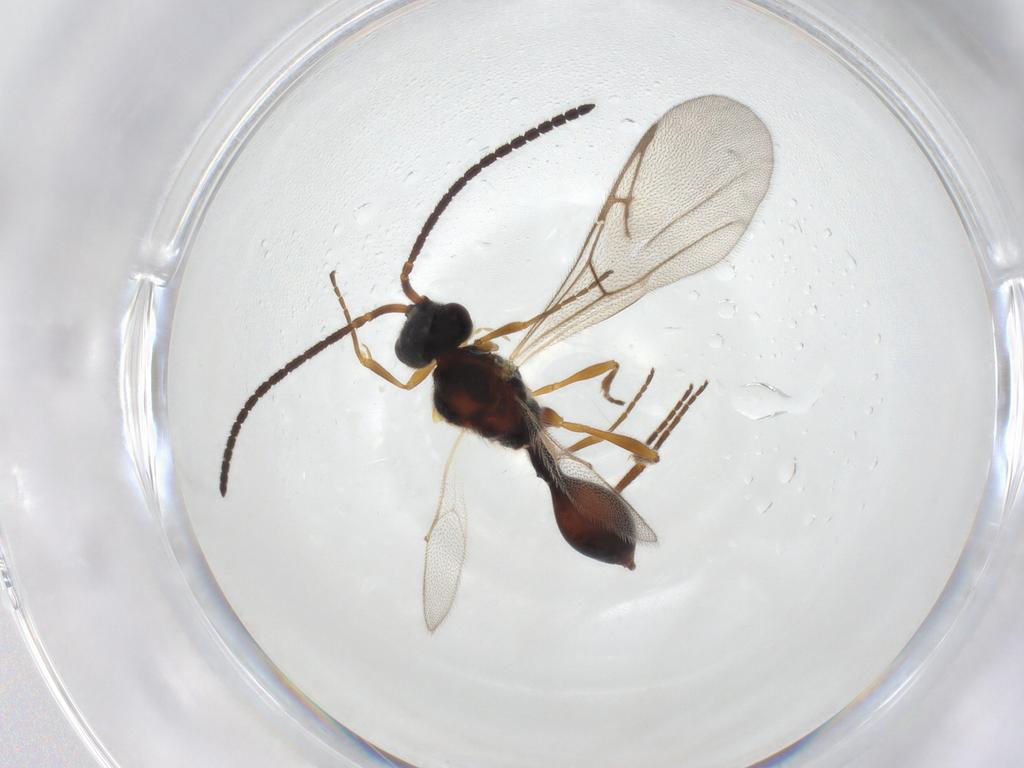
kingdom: Animalia
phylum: Arthropoda
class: Insecta
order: Hymenoptera
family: Diapriidae
